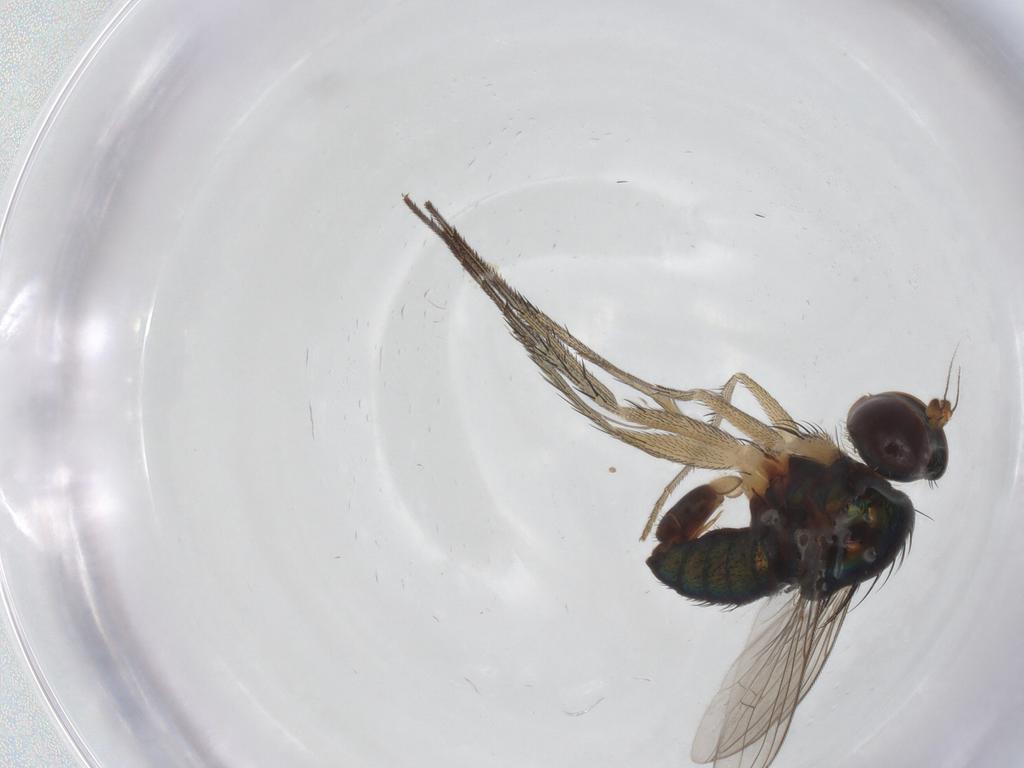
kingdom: Animalia
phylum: Arthropoda
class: Insecta
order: Diptera
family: Dolichopodidae
